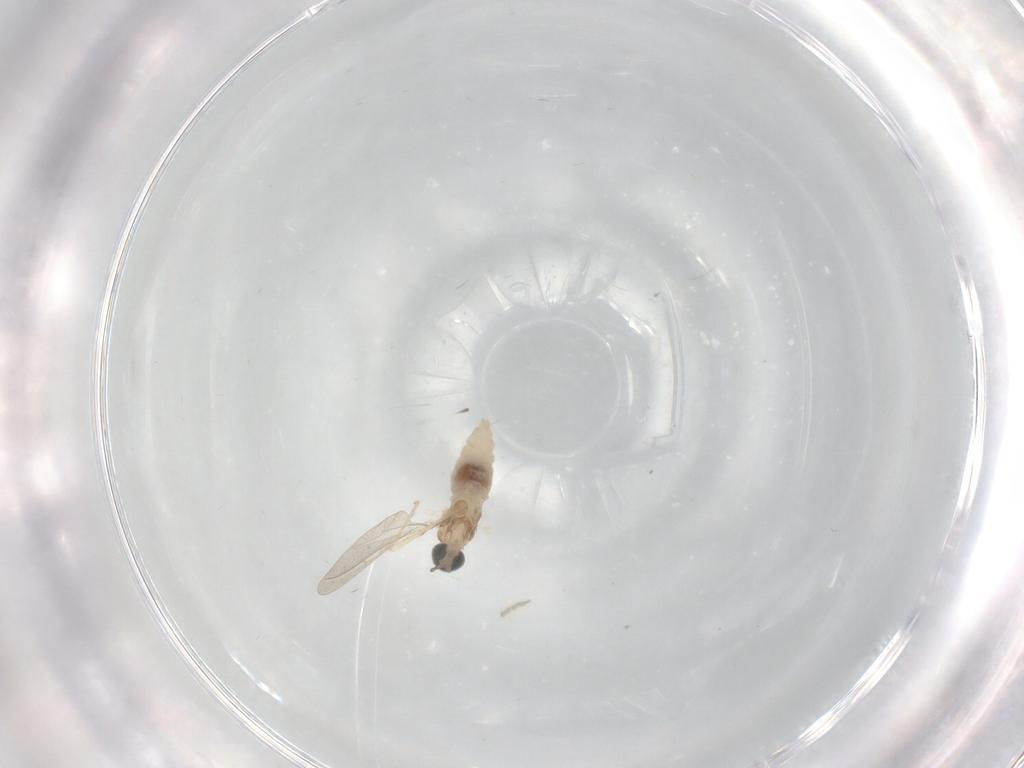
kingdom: Animalia
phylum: Arthropoda
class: Insecta
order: Diptera
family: Cecidomyiidae
